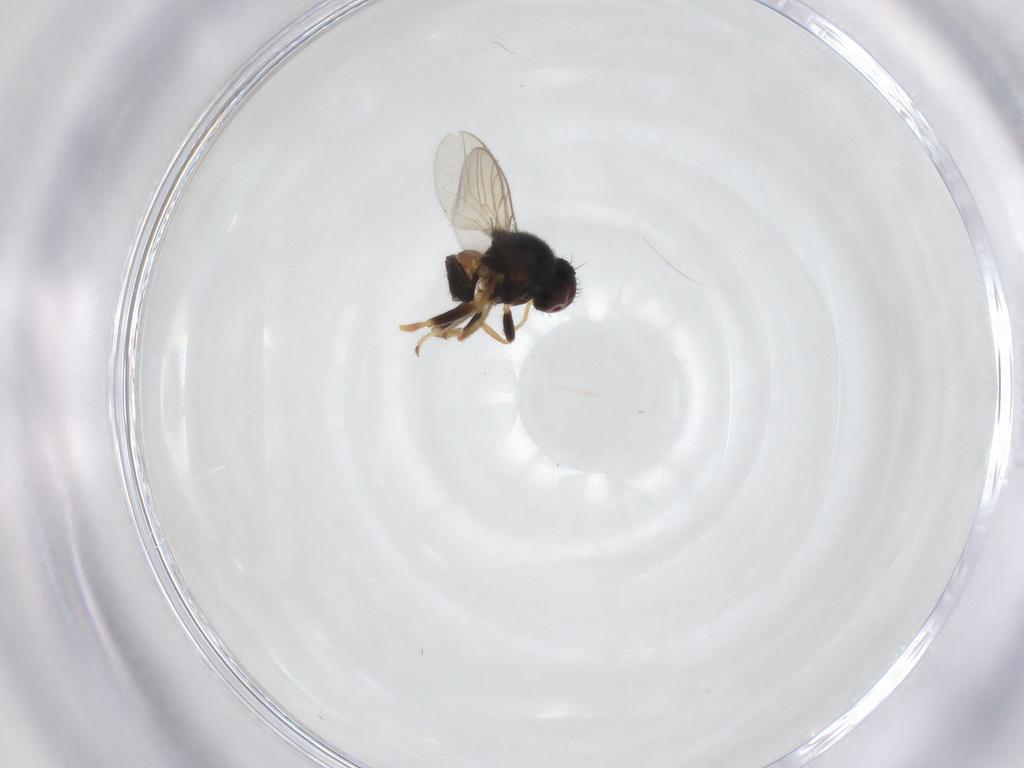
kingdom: Animalia
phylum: Arthropoda
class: Insecta
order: Diptera
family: Chloropidae
